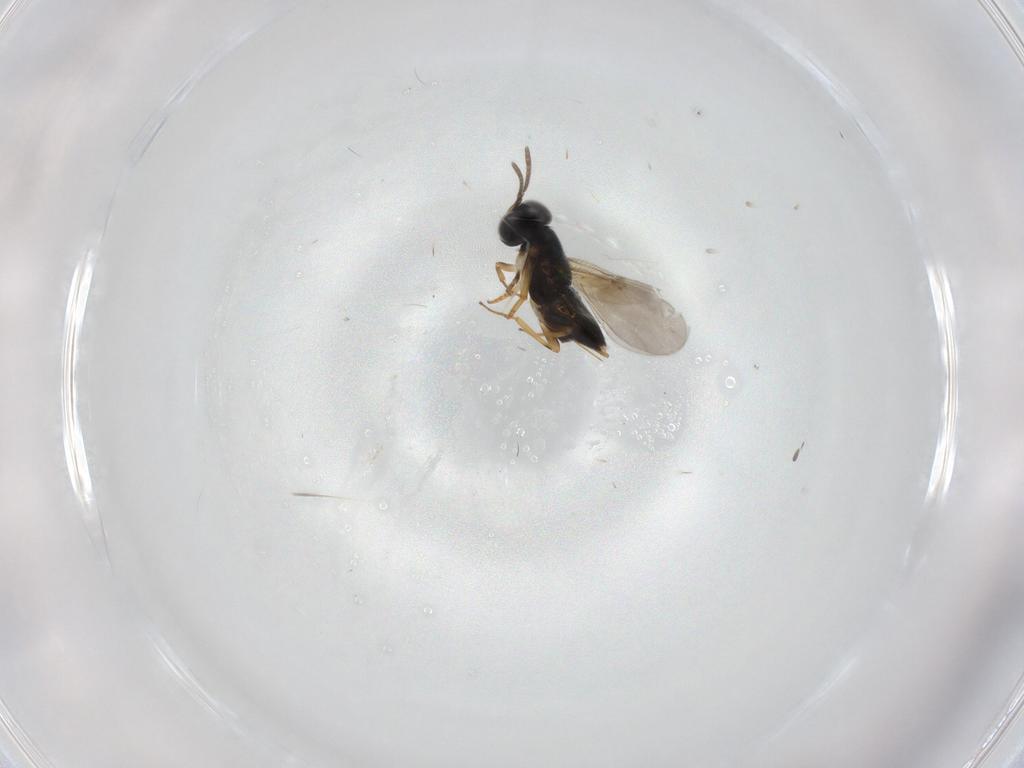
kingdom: Animalia
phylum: Arthropoda
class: Insecta
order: Hymenoptera
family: Encyrtidae
